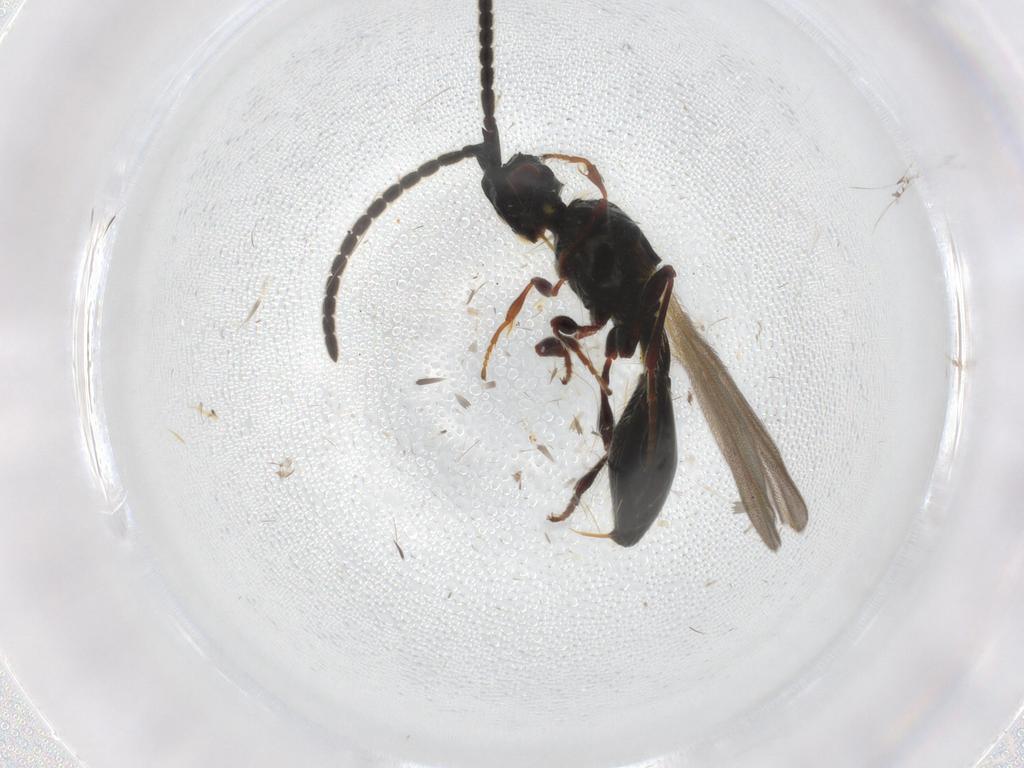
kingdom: Animalia
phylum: Arthropoda
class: Insecta
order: Hymenoptera
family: Diapriidae
